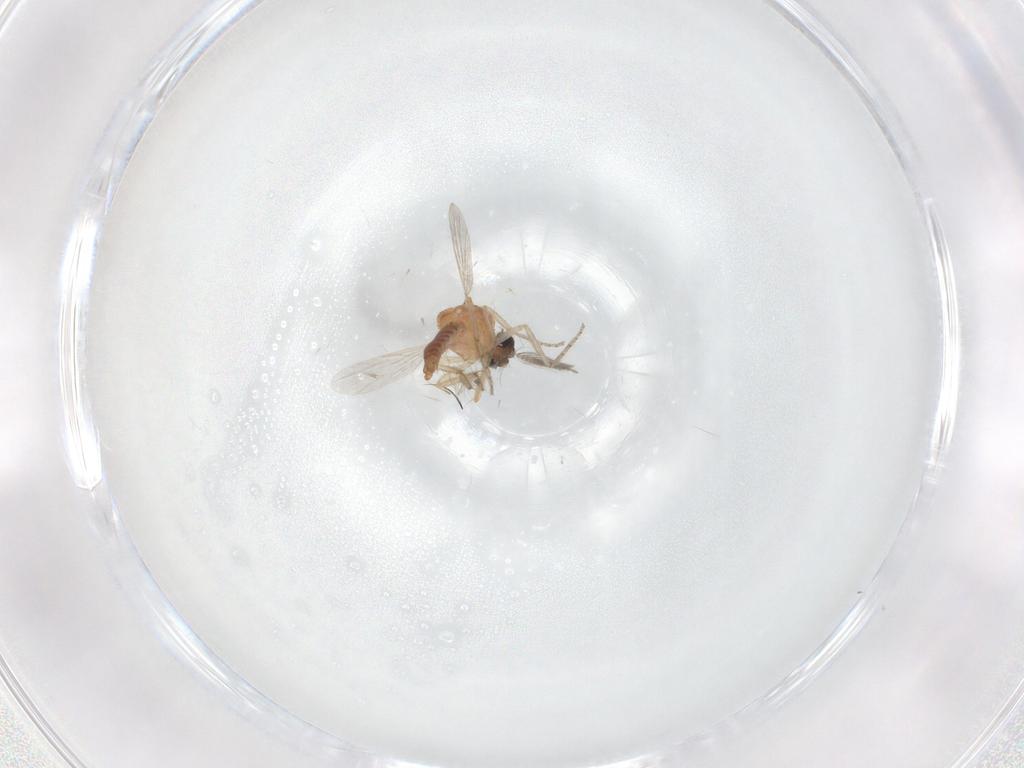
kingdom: Animalia
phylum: Arthropoda
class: Insecta
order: Diptera
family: Ceratopogonidae
